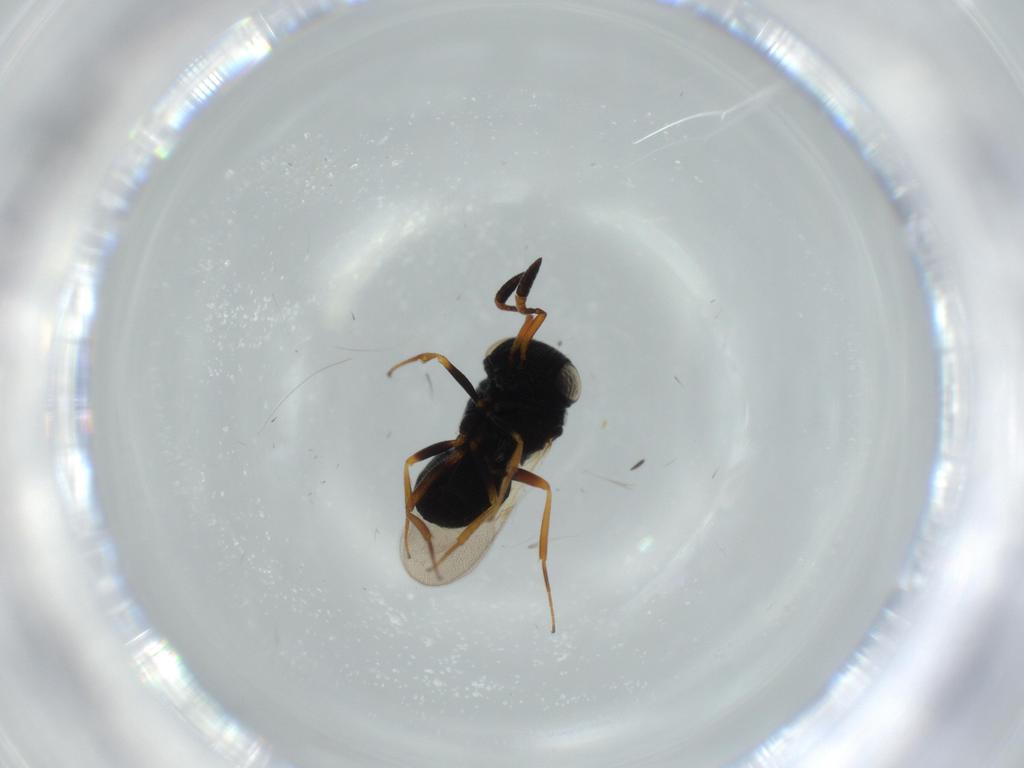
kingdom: Animalia
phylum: Arthropoda
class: Insecta
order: Hymenoptera
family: Scelionidae
